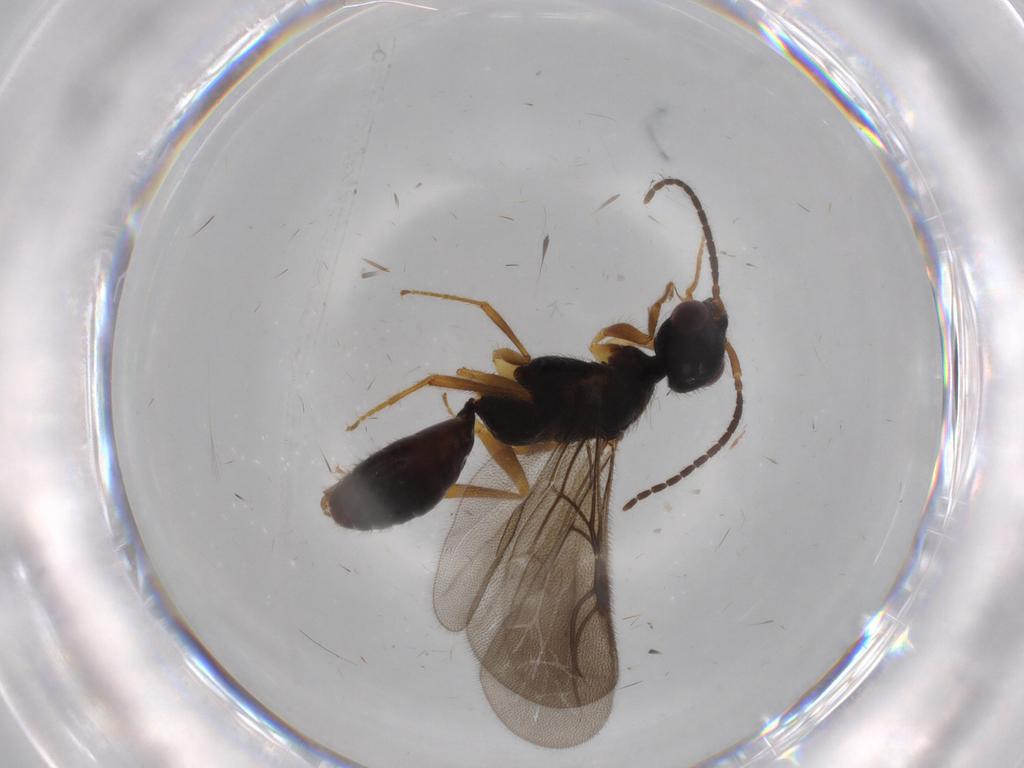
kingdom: Animalia
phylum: Arthropoda
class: Insecta
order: Hymenoptera
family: Bethylidae
